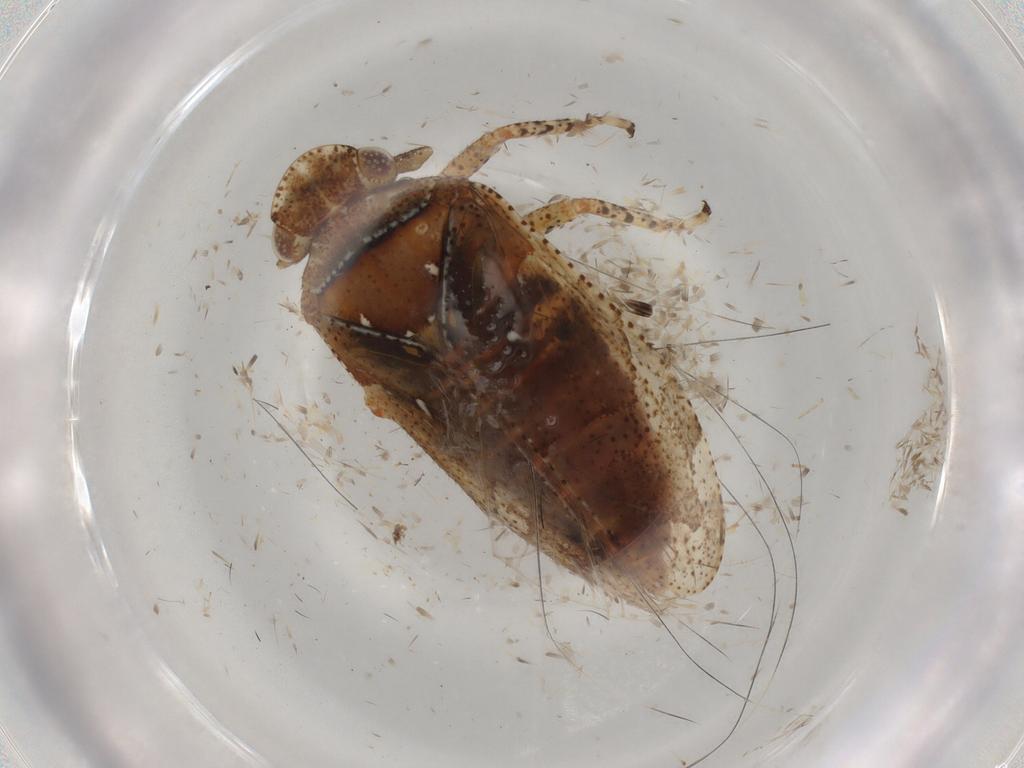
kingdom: Animalia
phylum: Arthropoda
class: Insecta
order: Hemiptera
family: Tettigometridae
